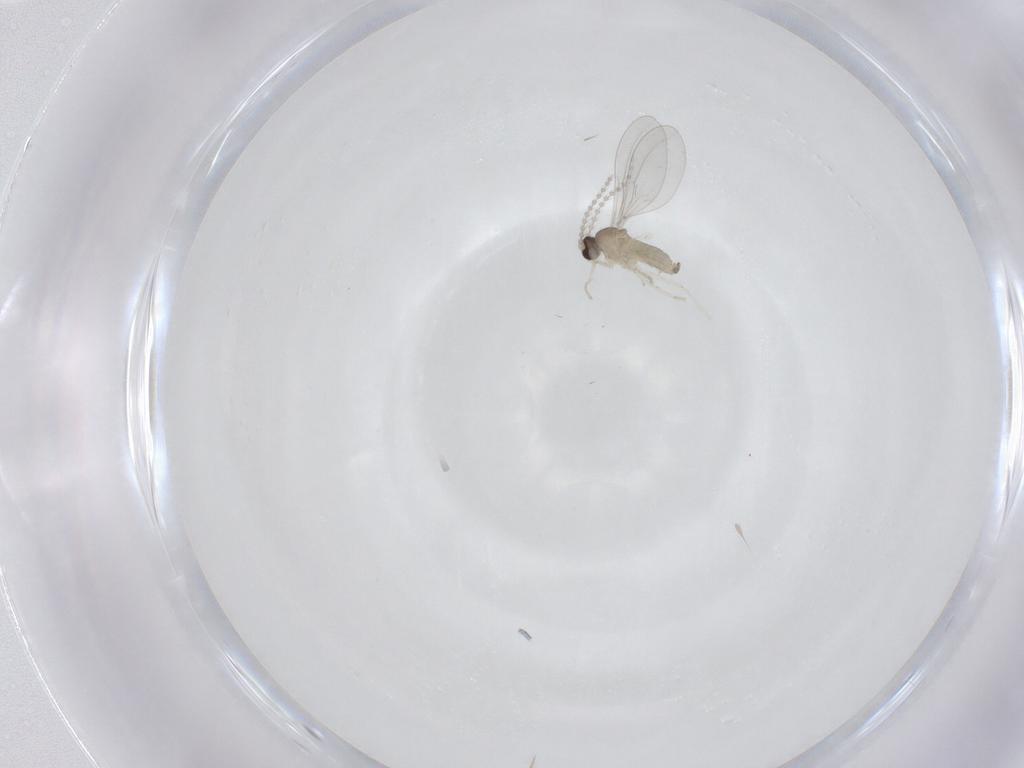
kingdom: Animalia
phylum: Arthropoda
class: Insecta
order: Diptera
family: Cecidomyiidae
